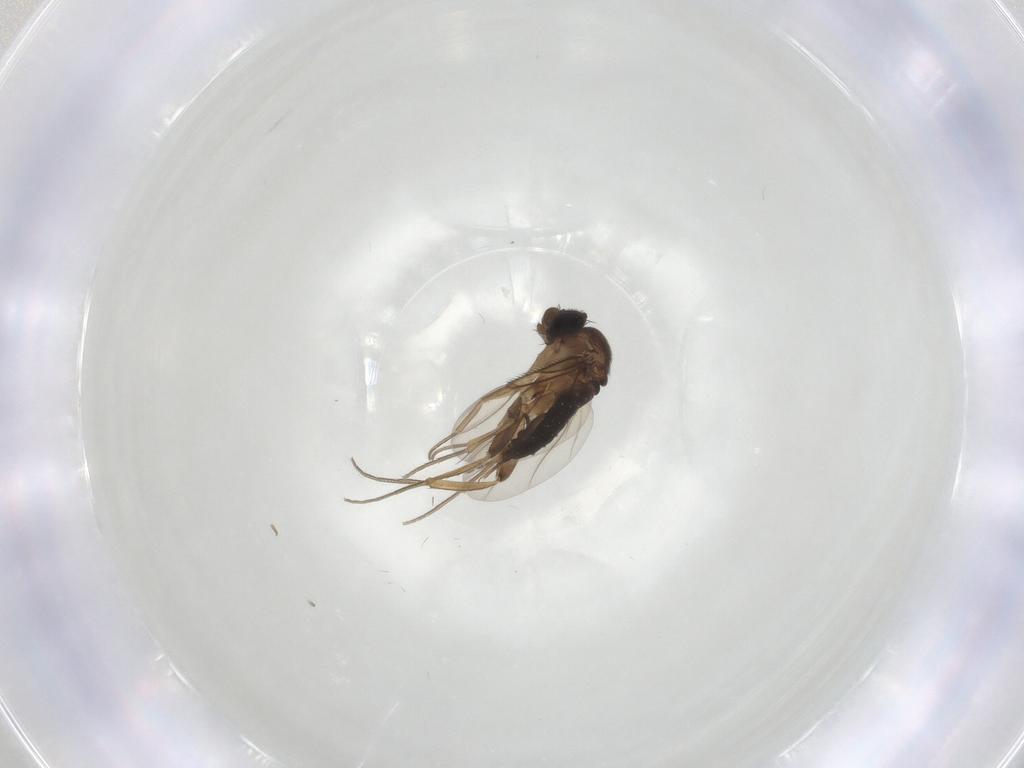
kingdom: Animalia
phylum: Arthropoda
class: Insecta
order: Diptera
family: Cecidomyiidae
